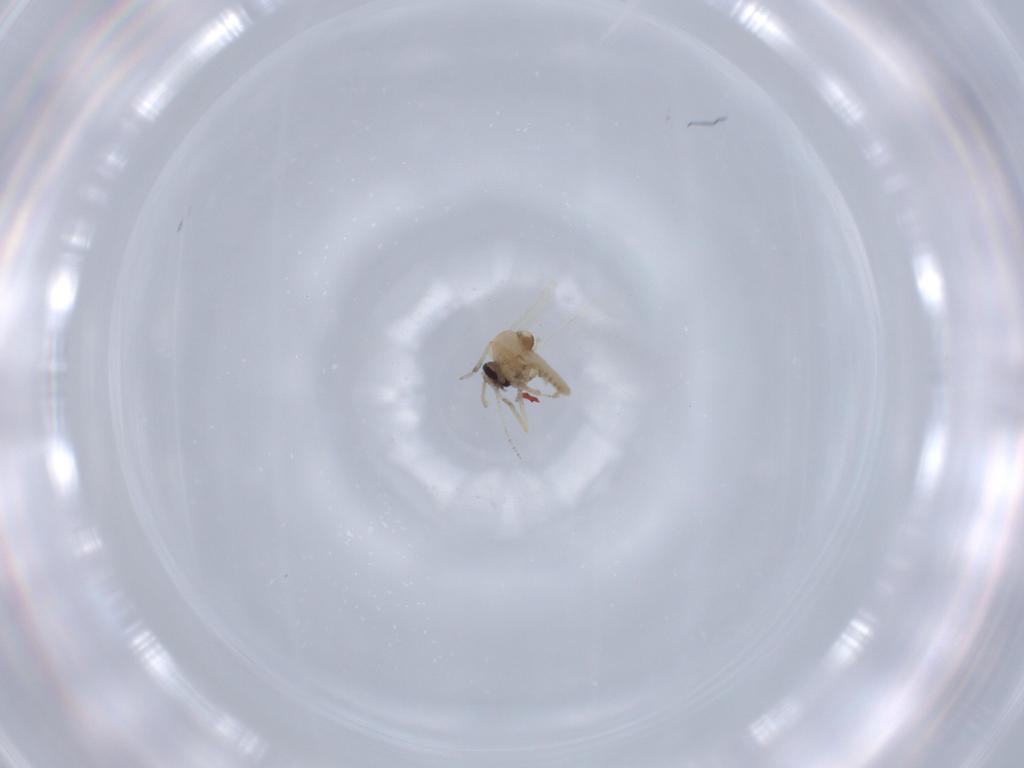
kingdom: Animalia
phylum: Arthropoda
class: Insecta
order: Diptera
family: Ceratopogonidae
